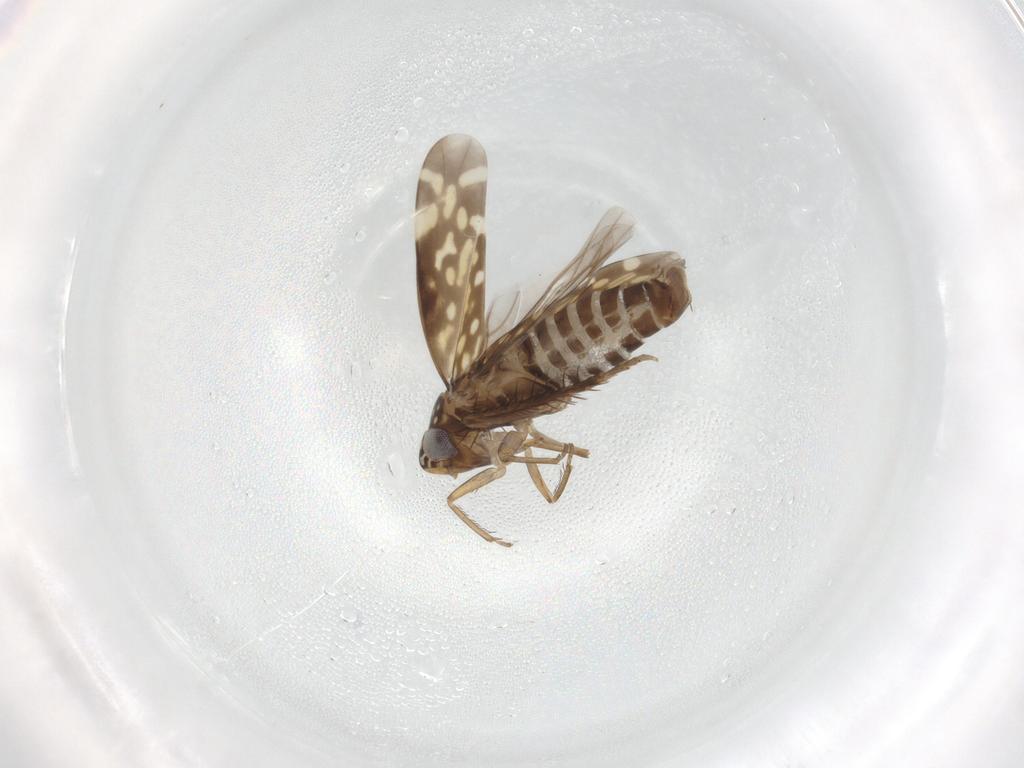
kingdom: Animalia
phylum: Arthropoda
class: Insecta
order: Hemiptera
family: Cicadellidae
